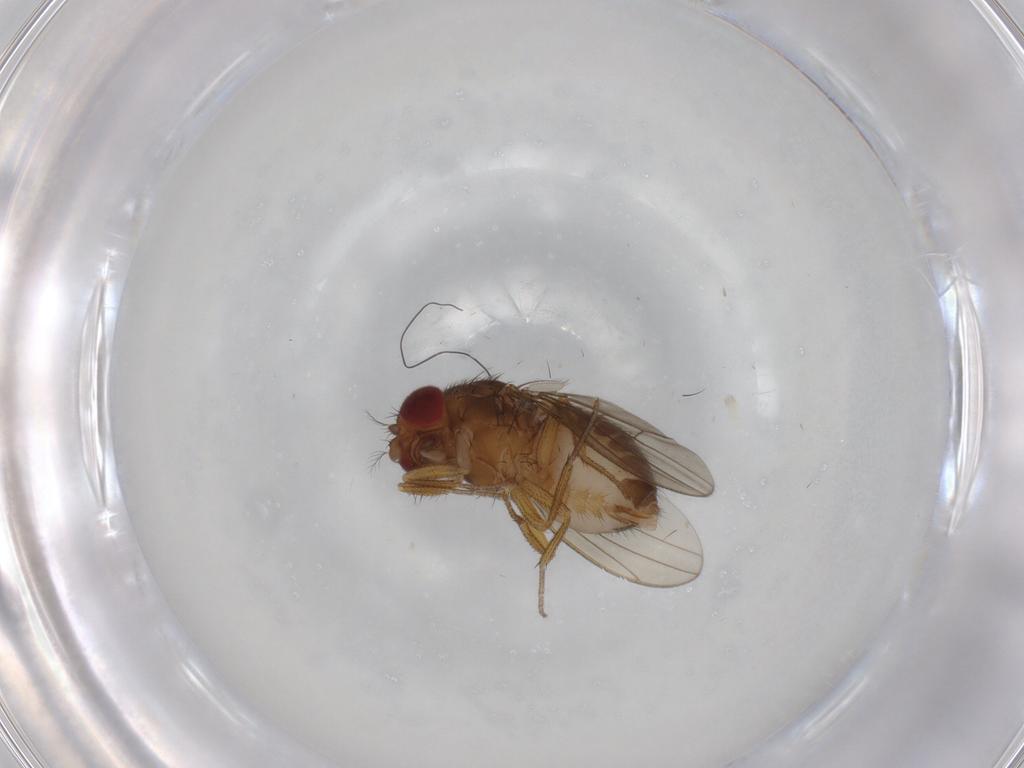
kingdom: Animalia
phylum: Arthropoda
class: Insecta
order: Diptera
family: Drosophilidae
